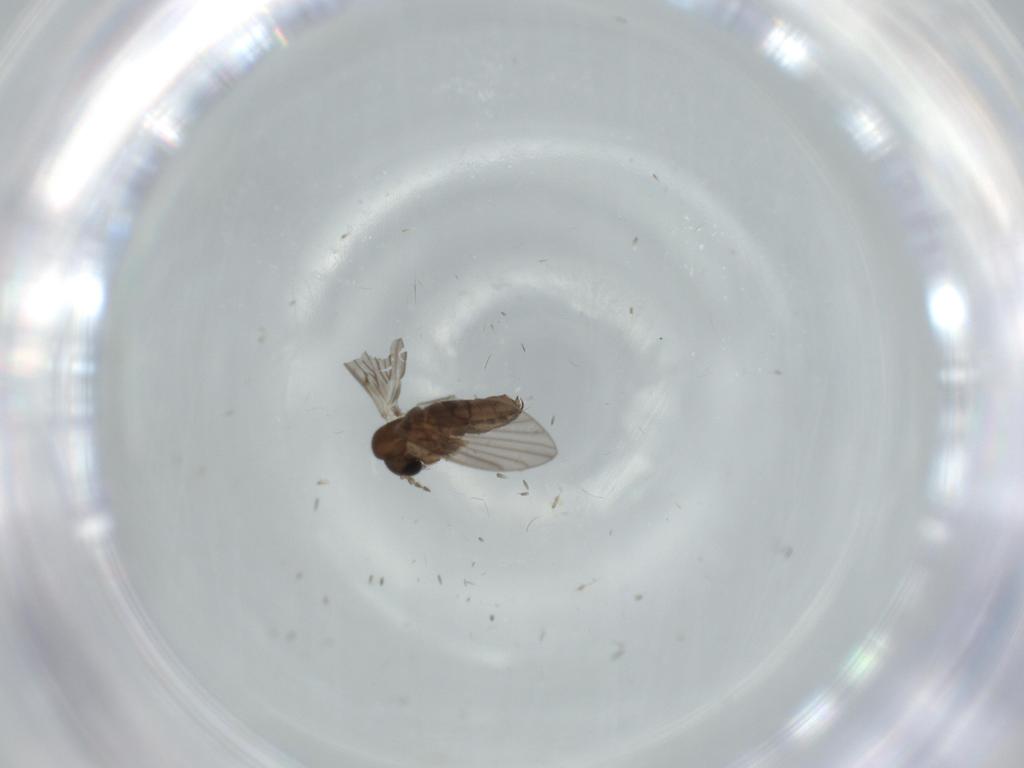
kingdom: Animalia
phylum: Arthropoda
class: Insecta
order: Diptera
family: Psychodidae
